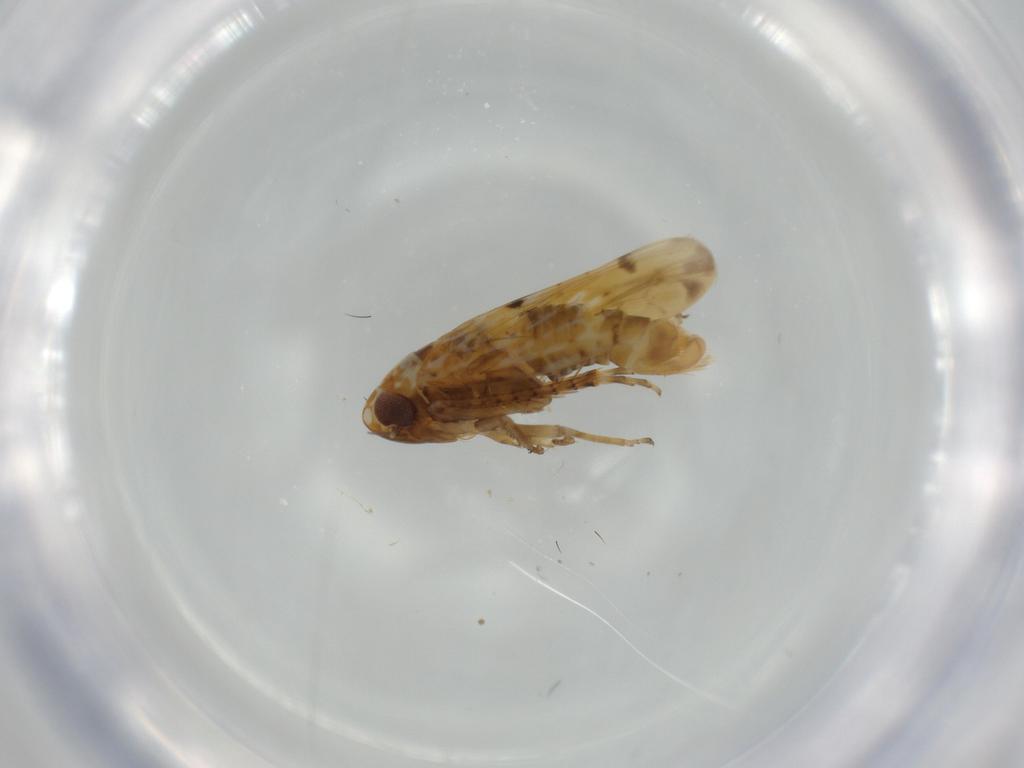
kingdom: Animalia
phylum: Arthropoda
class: Insecta
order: Hemiptera
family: Cicadellidae
